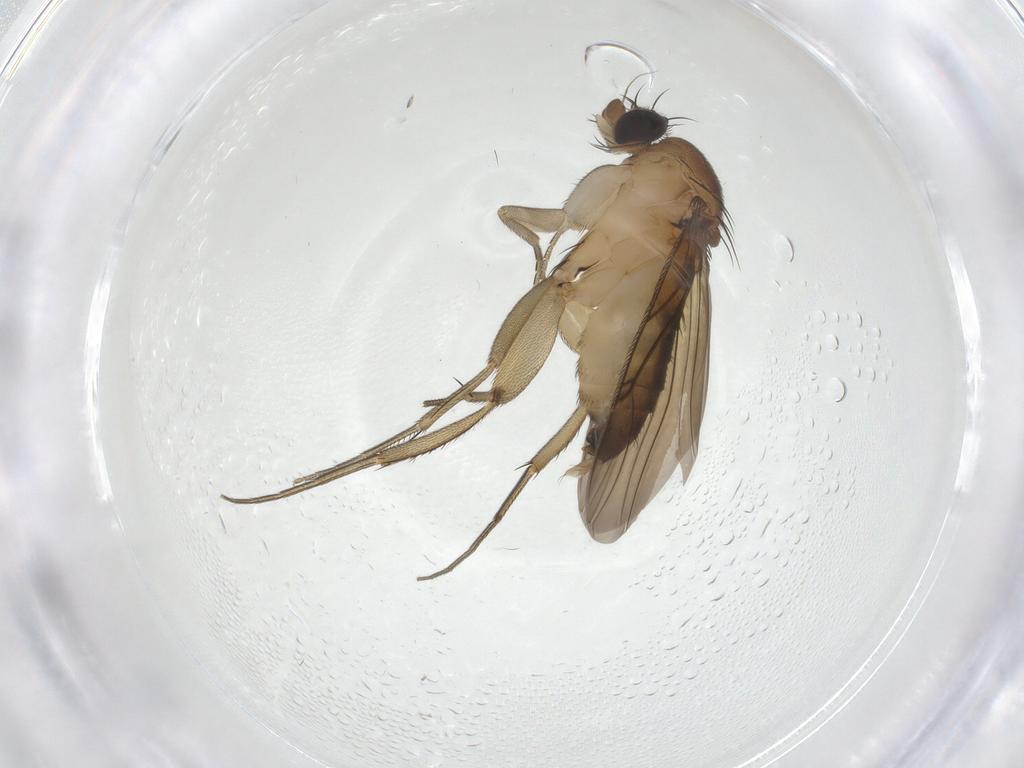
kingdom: Animalia
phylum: Arthropoda
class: Insecta
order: Diptera
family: Phoridae
